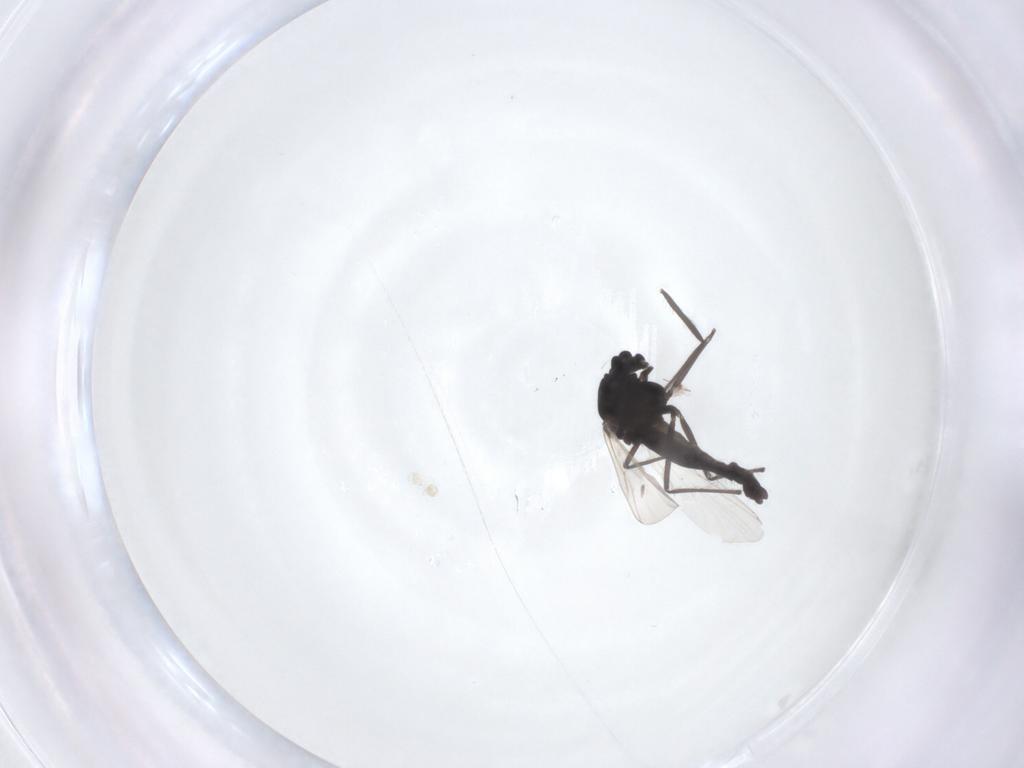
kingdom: Animalia
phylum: Arthropoda
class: Insecta
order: Diptera
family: Chironomidae
